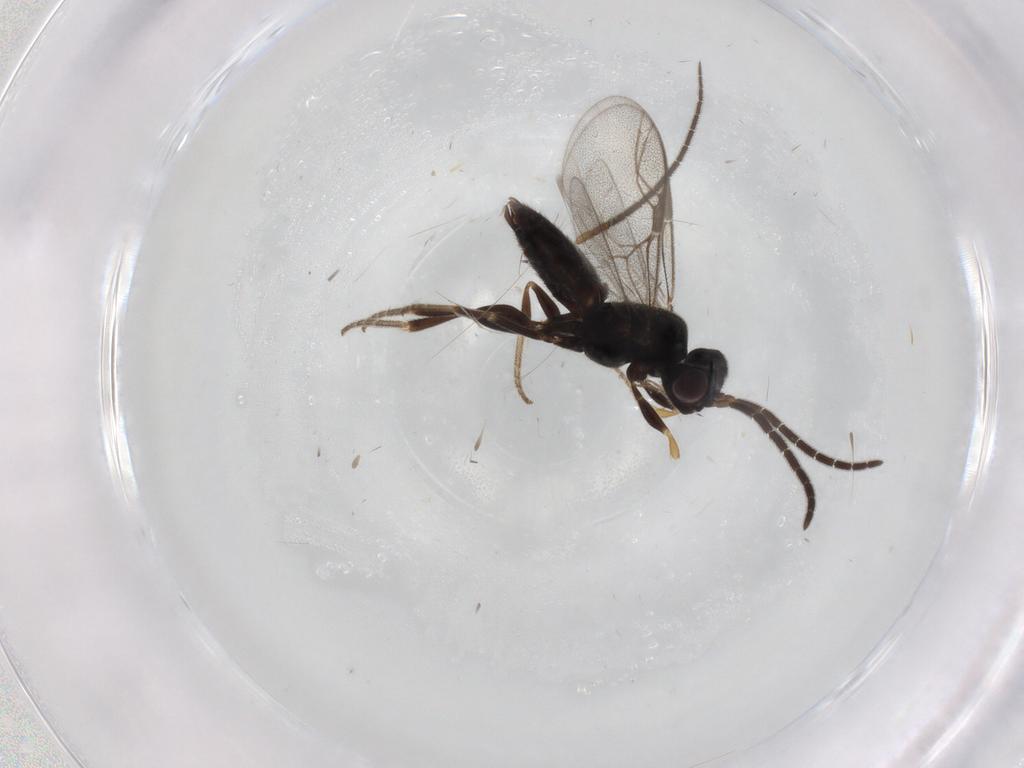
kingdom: Animalia
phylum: Arthropoda
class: Insecta
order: Hymenoptera
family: Dryinidae
